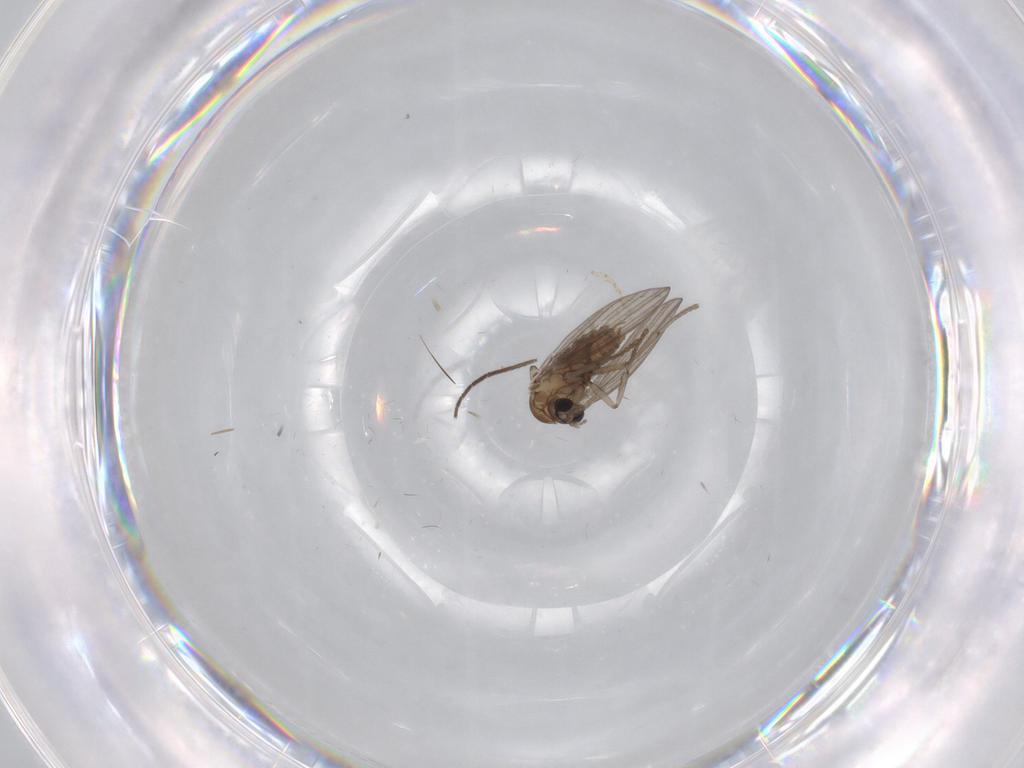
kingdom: Animalia
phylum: Arthropoda
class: Insecta
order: Diptera
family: Psychodidae
